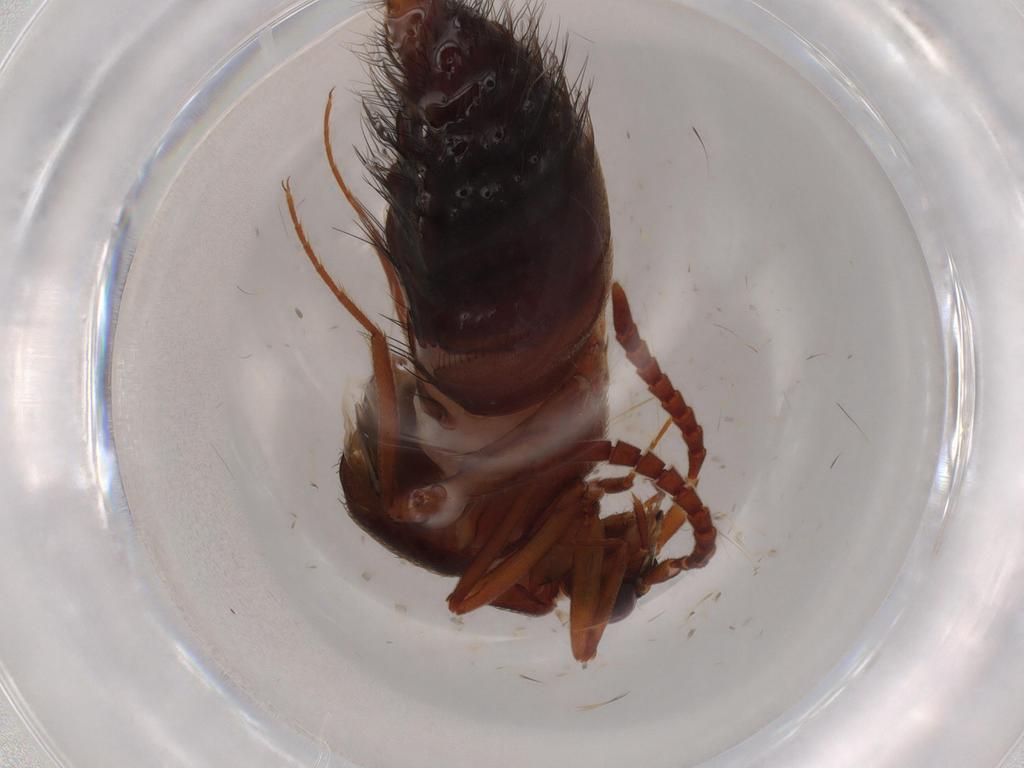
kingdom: Animalia
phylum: Arthropoda
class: Insecta
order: Coleoptera
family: Staphylinidae
